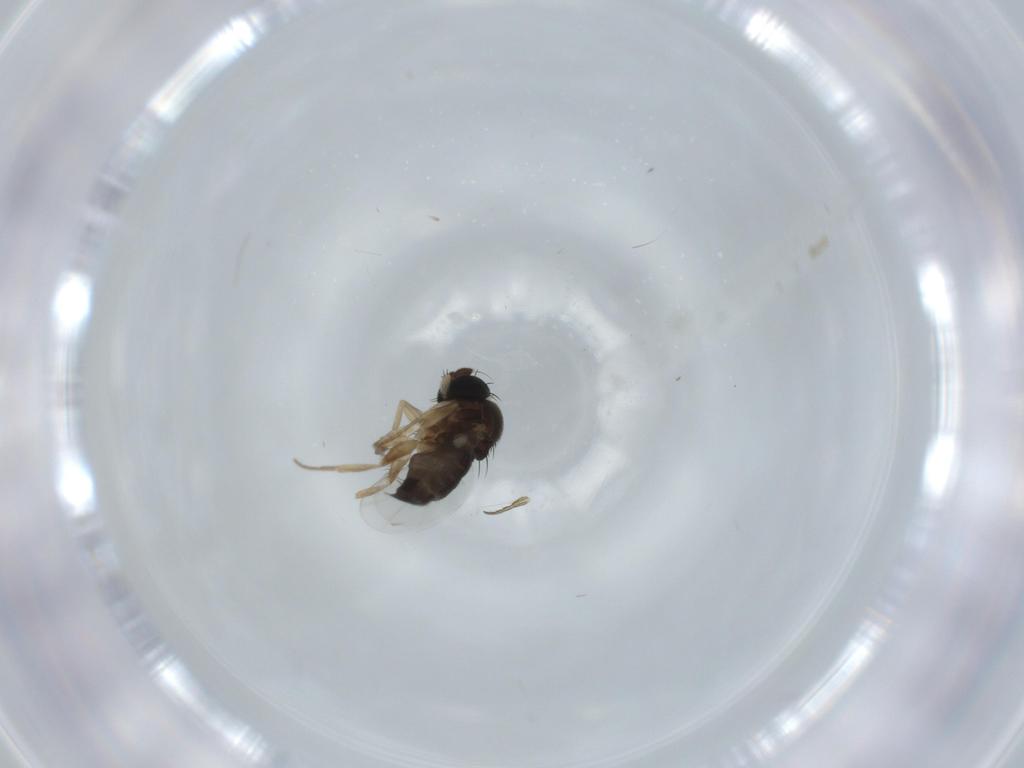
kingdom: Animalia
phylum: Arthropoda
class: Insecta
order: Diptera
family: Phoridae
